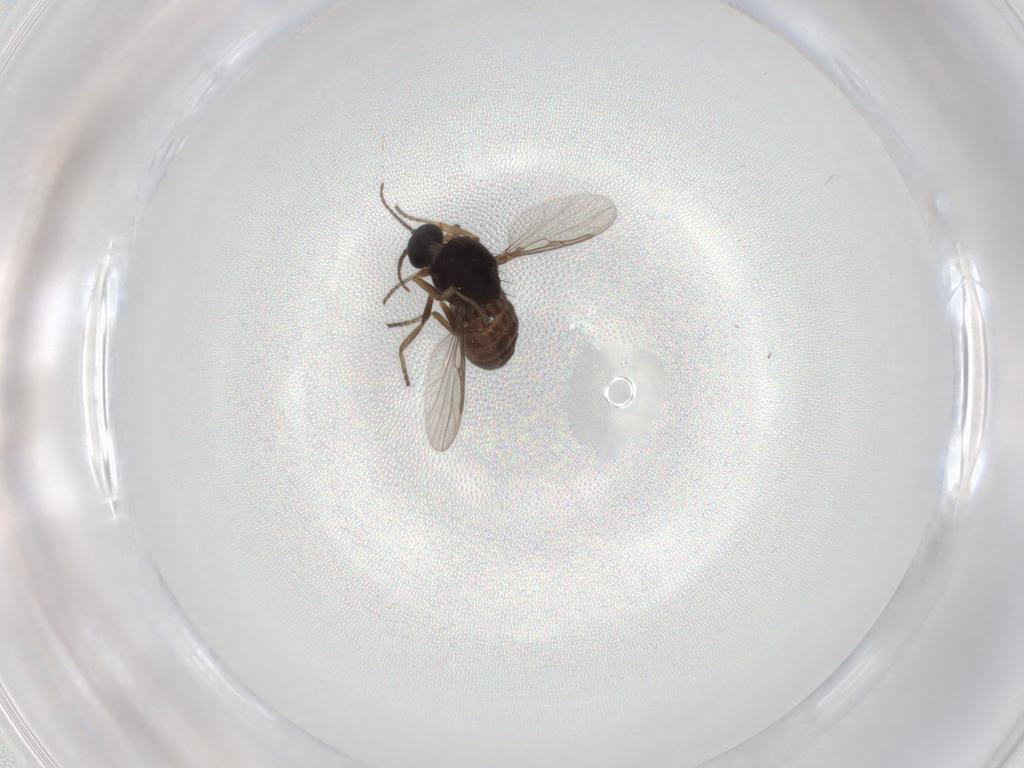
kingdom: Animalia
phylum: Arthropoda
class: Insecta
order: Diptera
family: Ceratopogonidae
